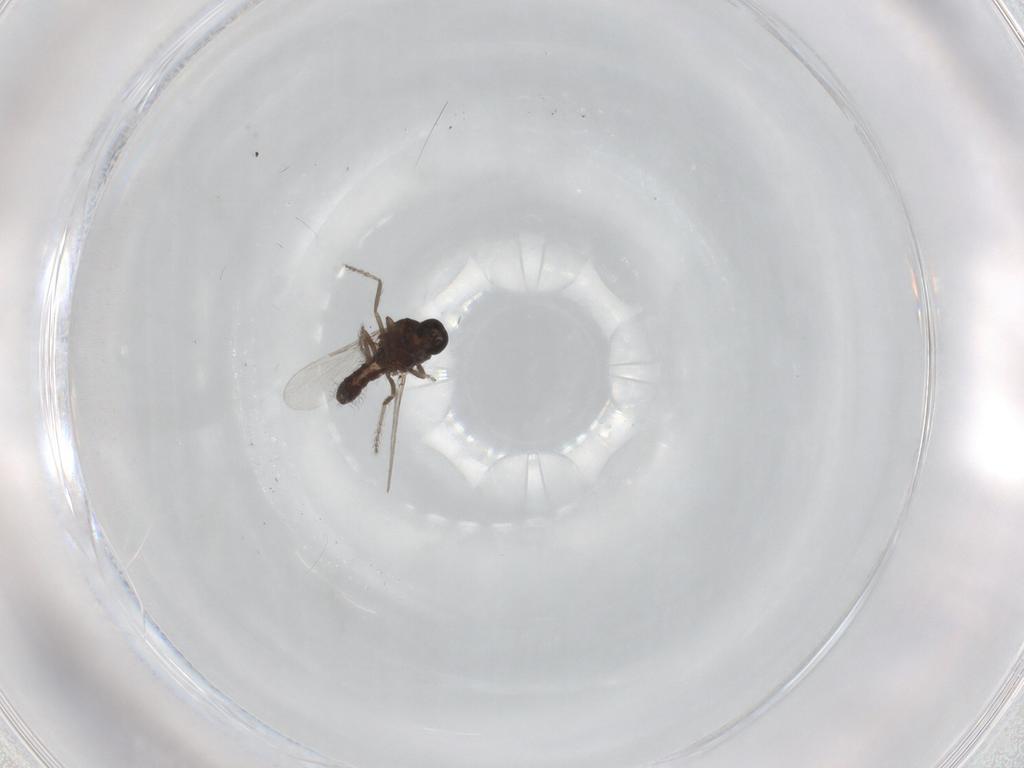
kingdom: Animalia
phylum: Arthropoda
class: Insecta
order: Diptera
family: Ceratopogonidae
